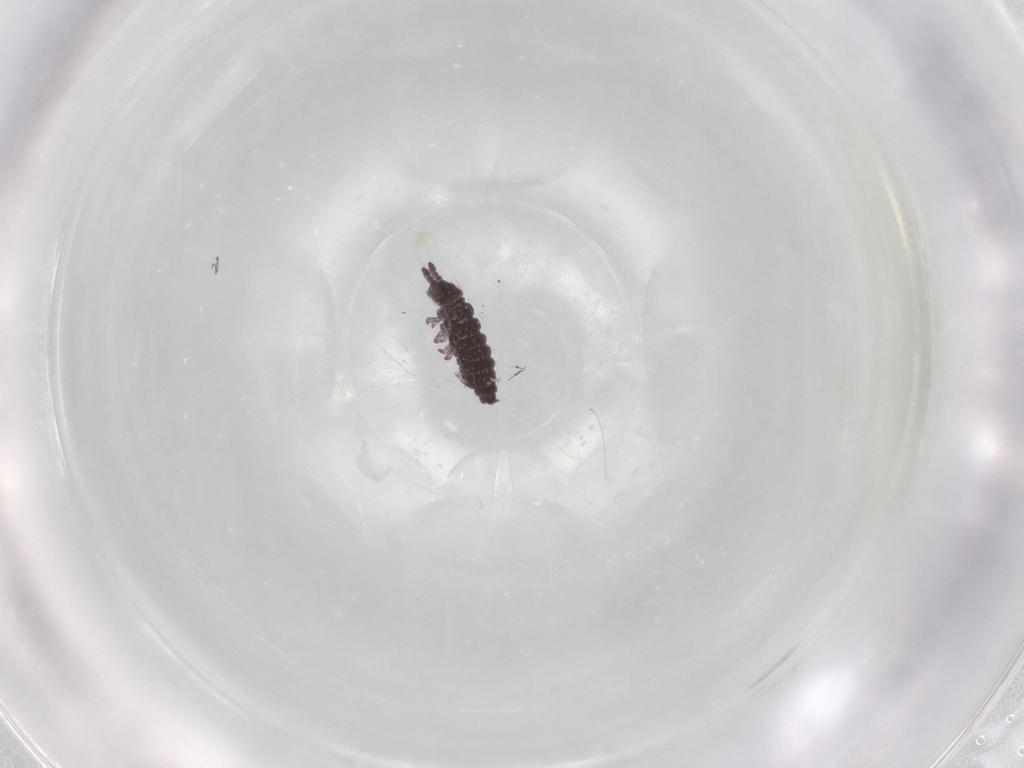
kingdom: Animalia
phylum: Arthropoda
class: Collembola
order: Poduromorpha
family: Hypogastruridae
